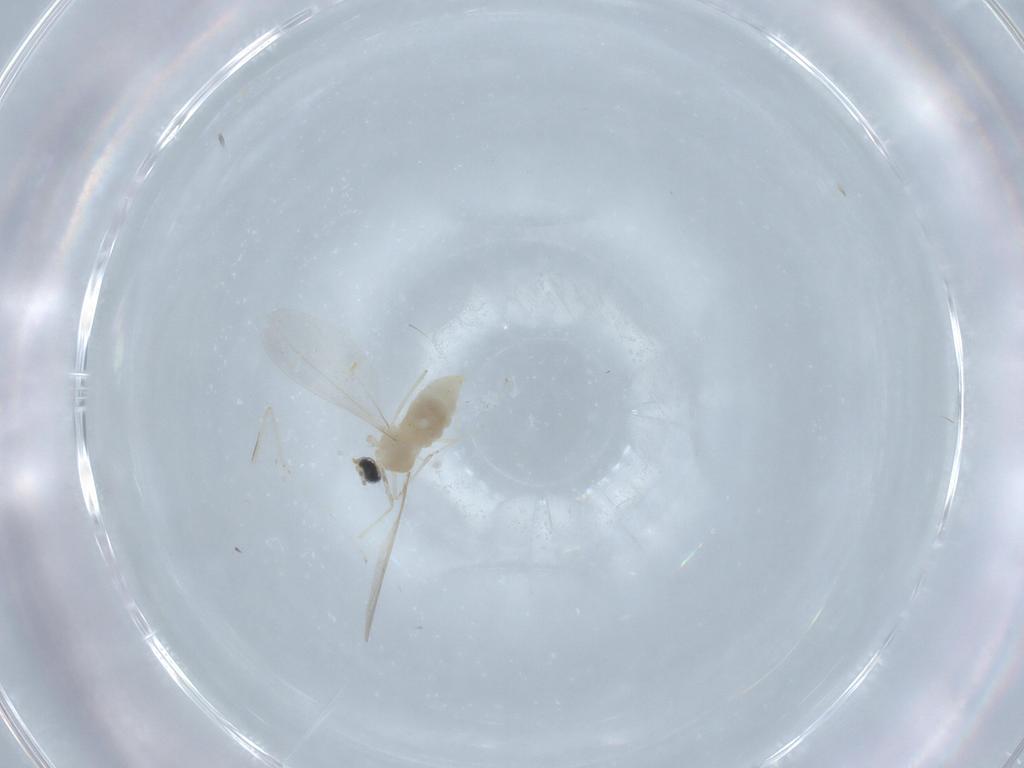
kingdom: Animalia
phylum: Arthropoda
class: Insecta
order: Diptera
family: Cecidomyiidae
